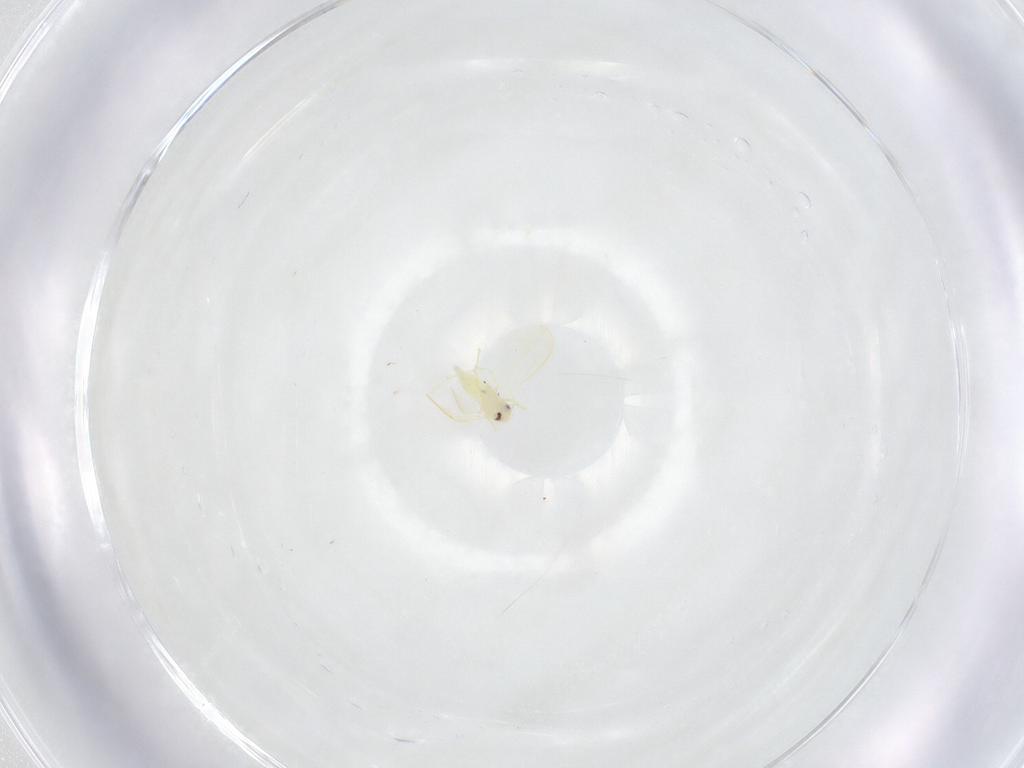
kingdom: Animalia
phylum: Arthropoda
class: Insecta
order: Hemiptera
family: Aleyrodidae
